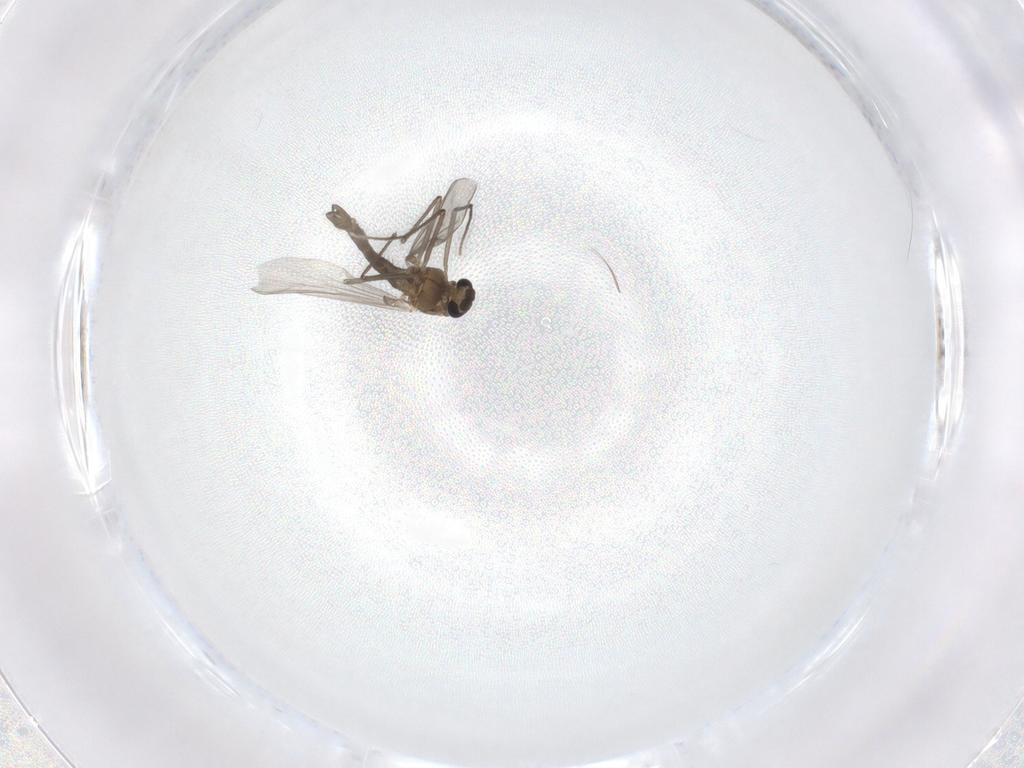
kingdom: Animalia
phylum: Arthropoda
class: Insecta
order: Diptera
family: Chironomidae
